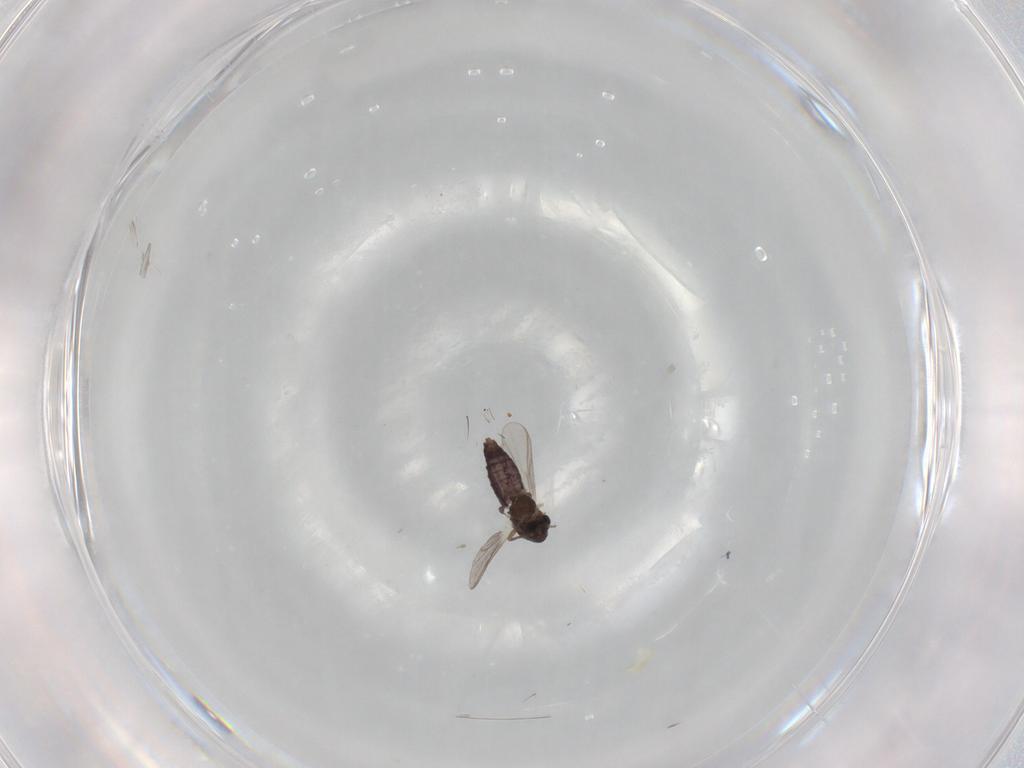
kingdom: Animalia
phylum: Arthropoda
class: Insecta
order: Diptera
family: Chironomidae
